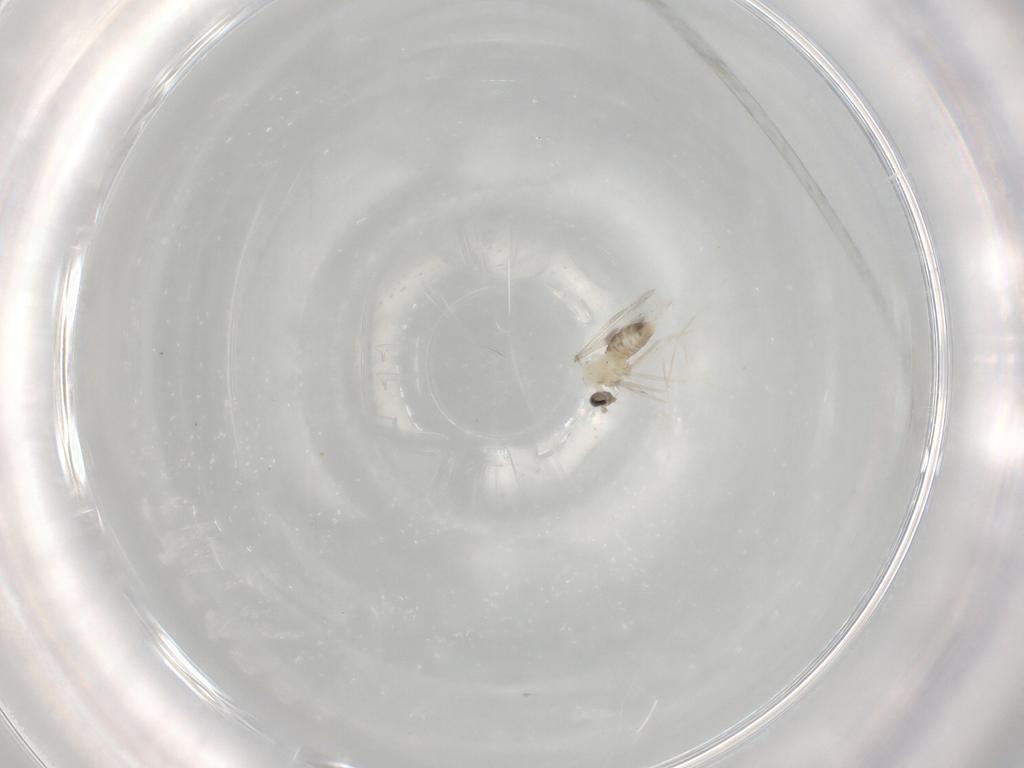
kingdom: Animalia
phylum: Arthropoda
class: Insecta
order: Diptera
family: Cecidomyiidae
